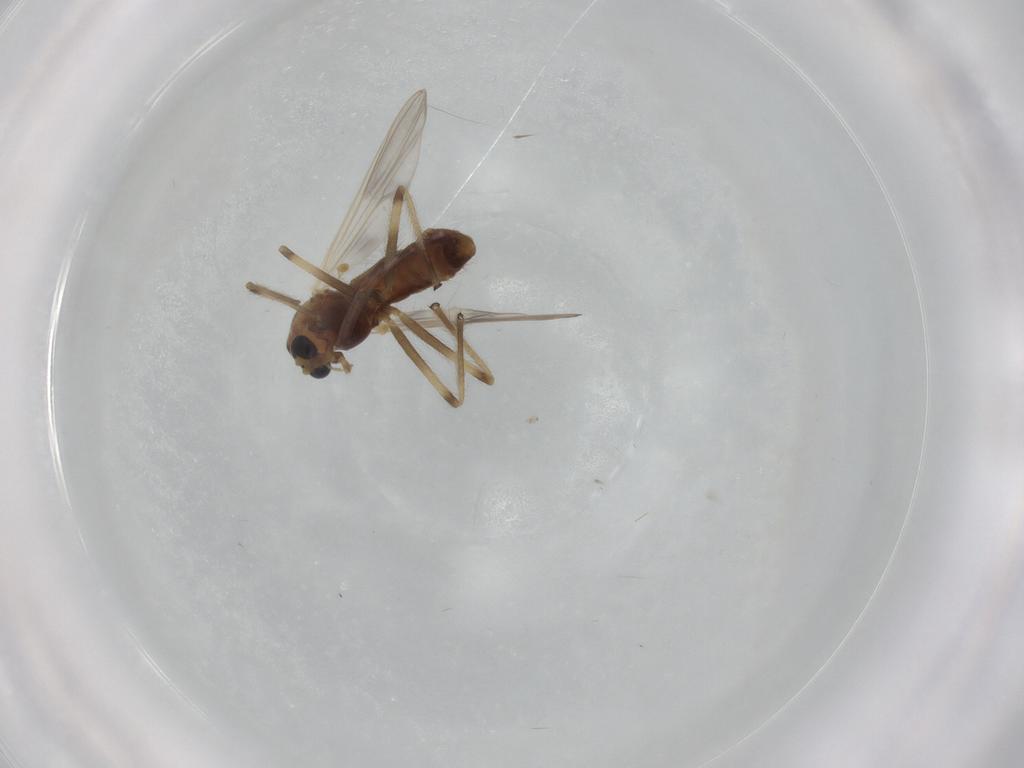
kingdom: Animalia
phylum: Arthropoda
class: Insecta
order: Diptera
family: Chironomidae
